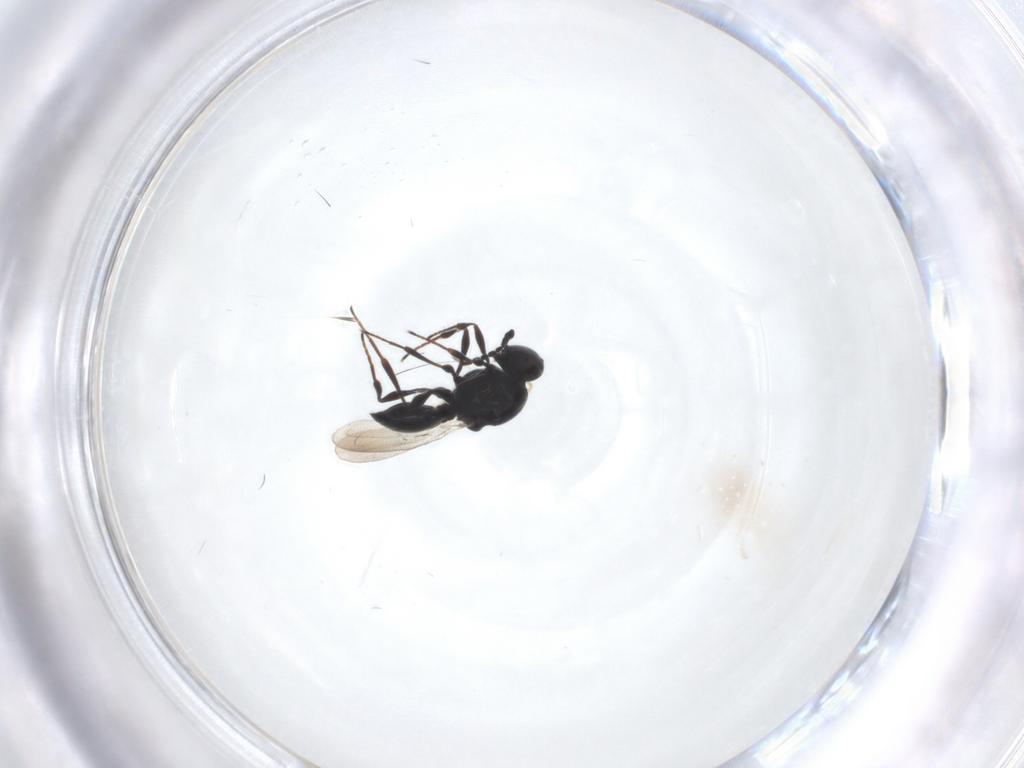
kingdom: Animalia
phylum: Arthropoda
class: Insecta
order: Hymenoptera
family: Platygastridae
